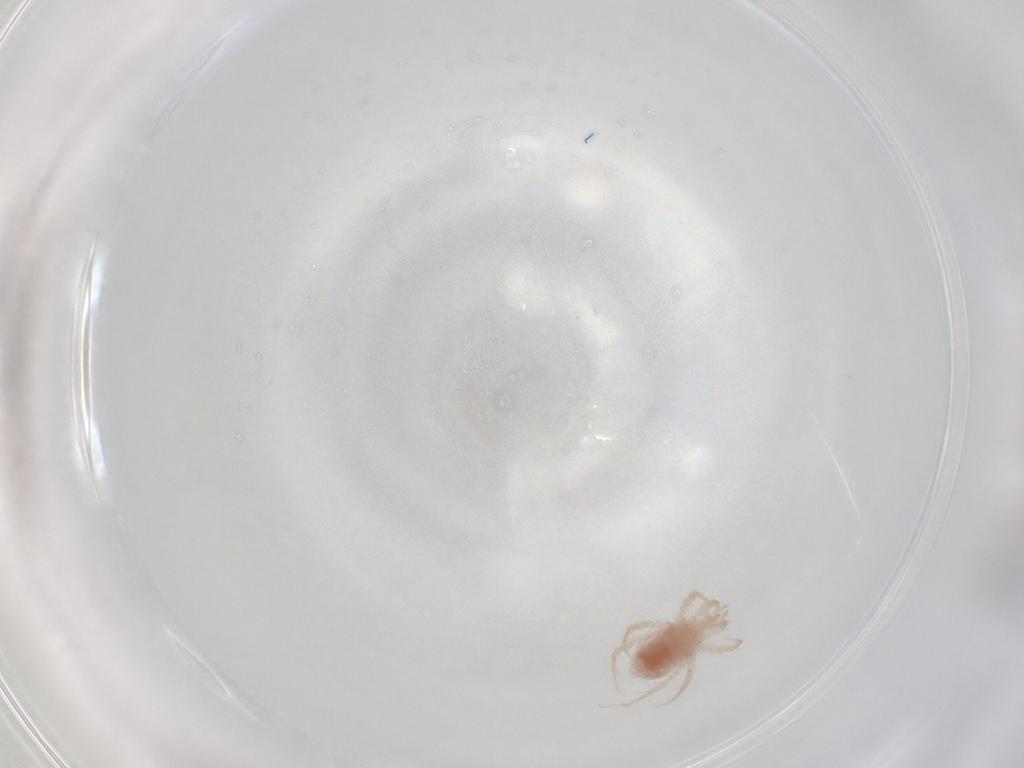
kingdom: Animalia
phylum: Arthropoda
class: Arachnida
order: Trombidiformes
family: Cunaxidae
